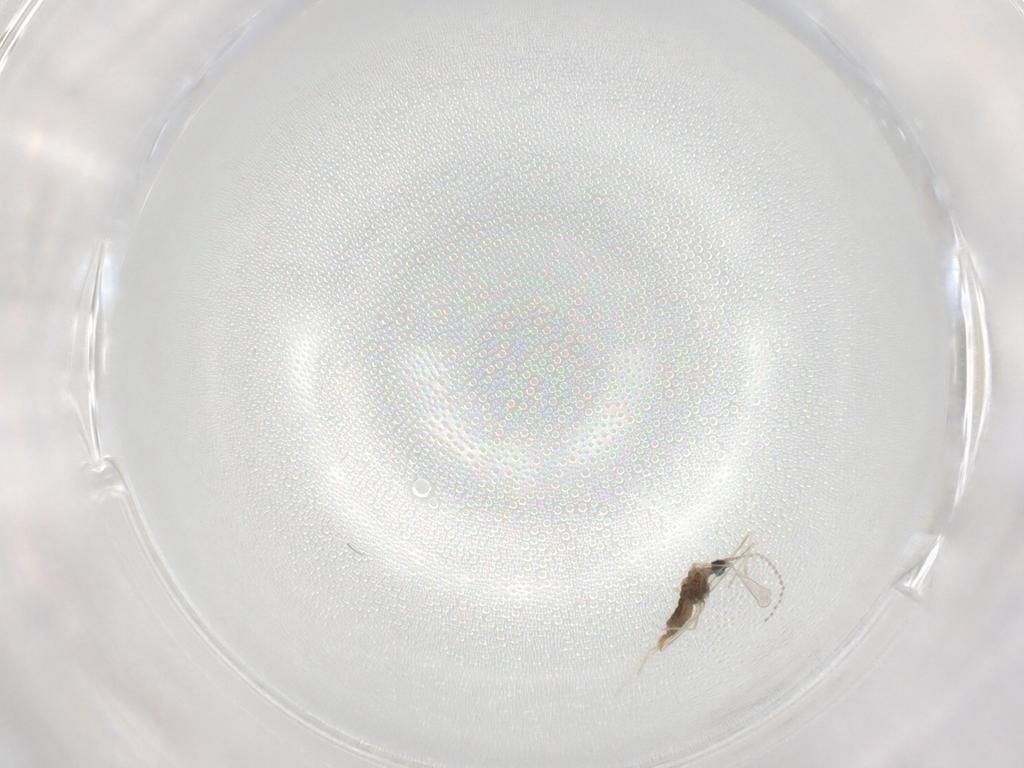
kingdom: Animalia
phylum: Arthropoda
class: Insecta
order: Diptera
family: Cecidomyiidae
